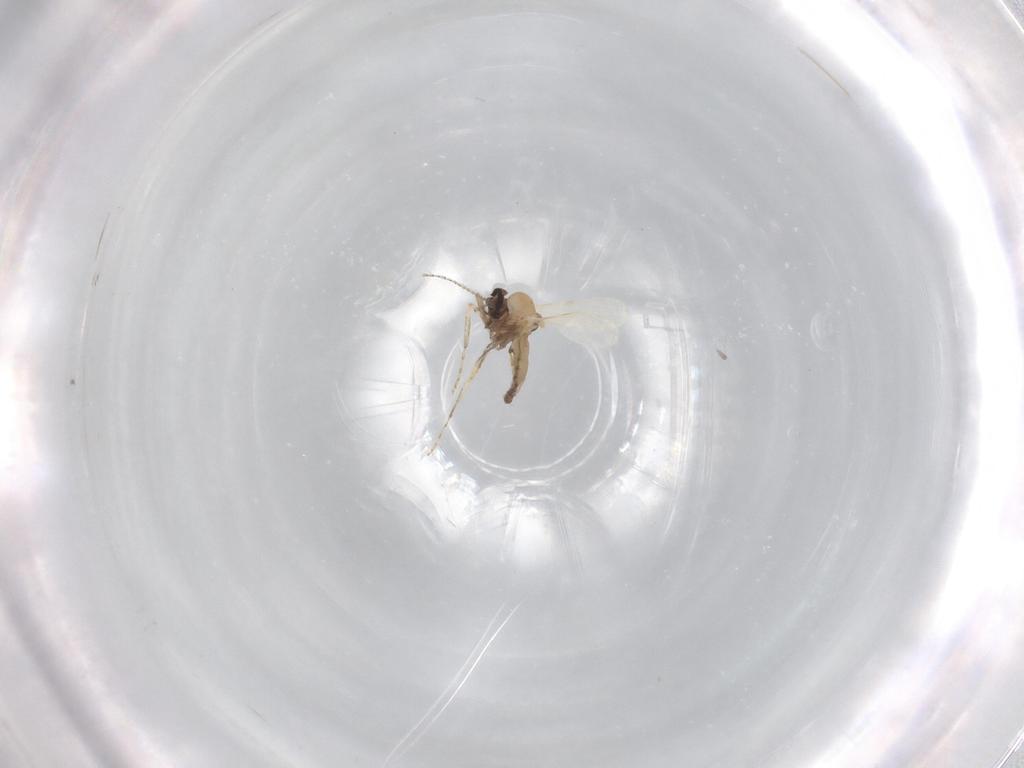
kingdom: Animalia
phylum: Arthropoda
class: Insecta
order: Diptera
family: Ceratopogonidae
